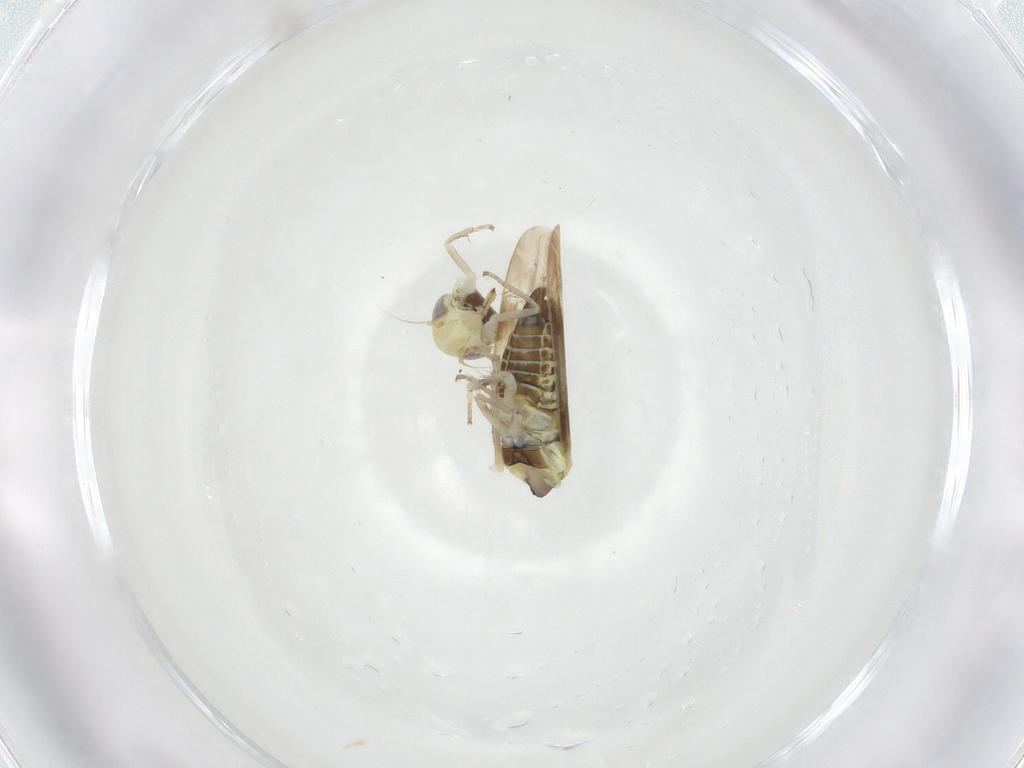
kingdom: Animalia
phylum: Arthropoda
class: Insecta
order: Hemiptera
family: Cicadellidae
